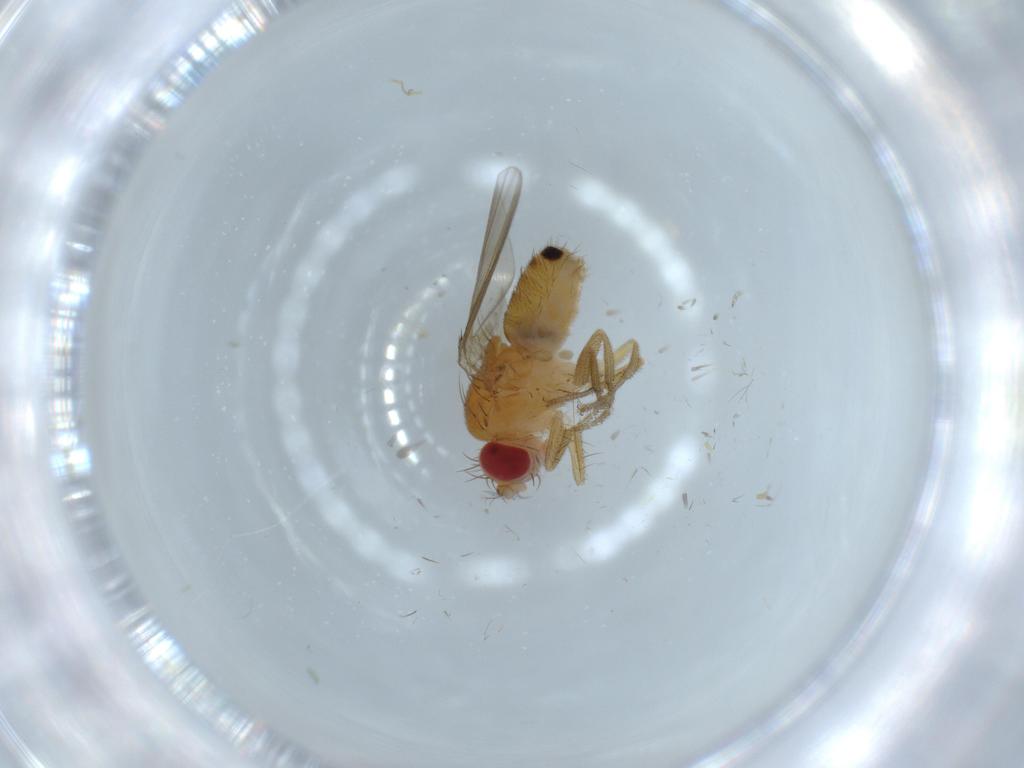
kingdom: Animalia
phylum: Arthropoda
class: Insecta
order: Diptera
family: Drosophilidae
